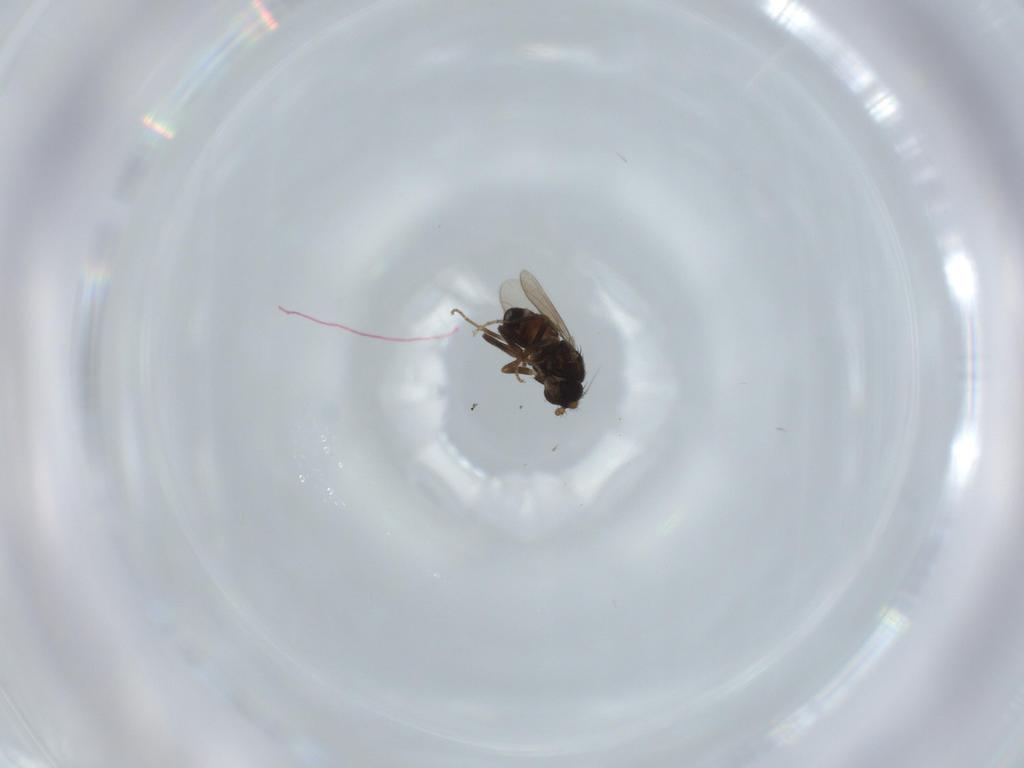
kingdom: Animalia
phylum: Arthropoda
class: Insecta
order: Diptera
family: Sphaeroceridae
